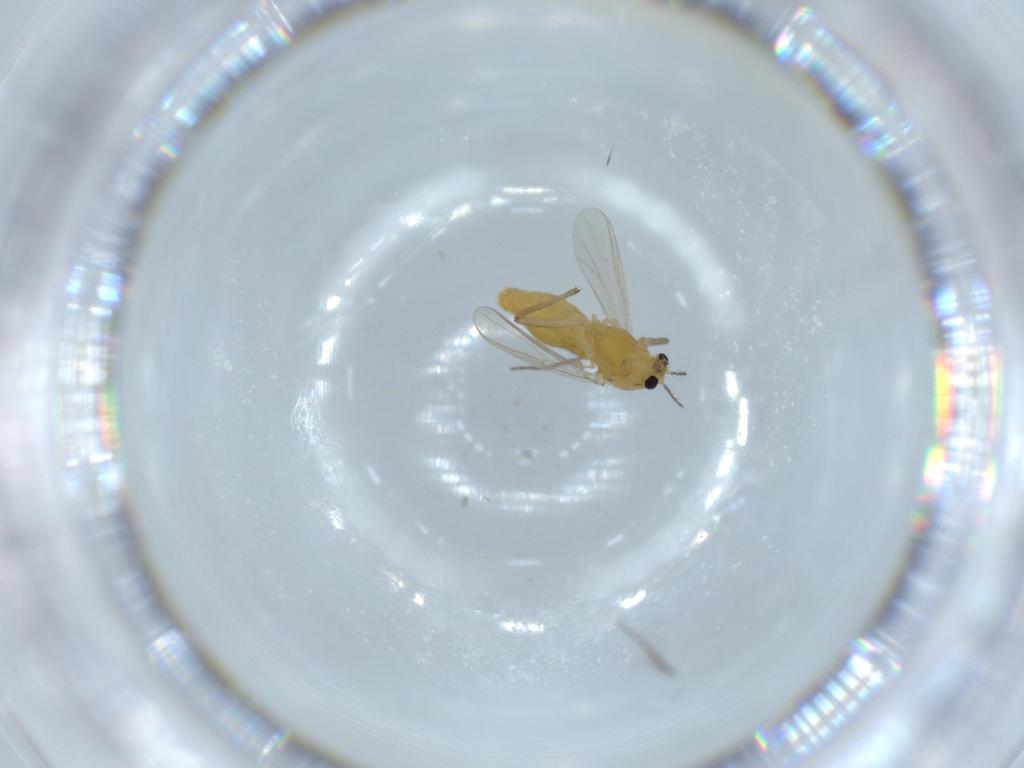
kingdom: Animalia
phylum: Arthropoda
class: Insecta
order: Diptera
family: Chironomidae
